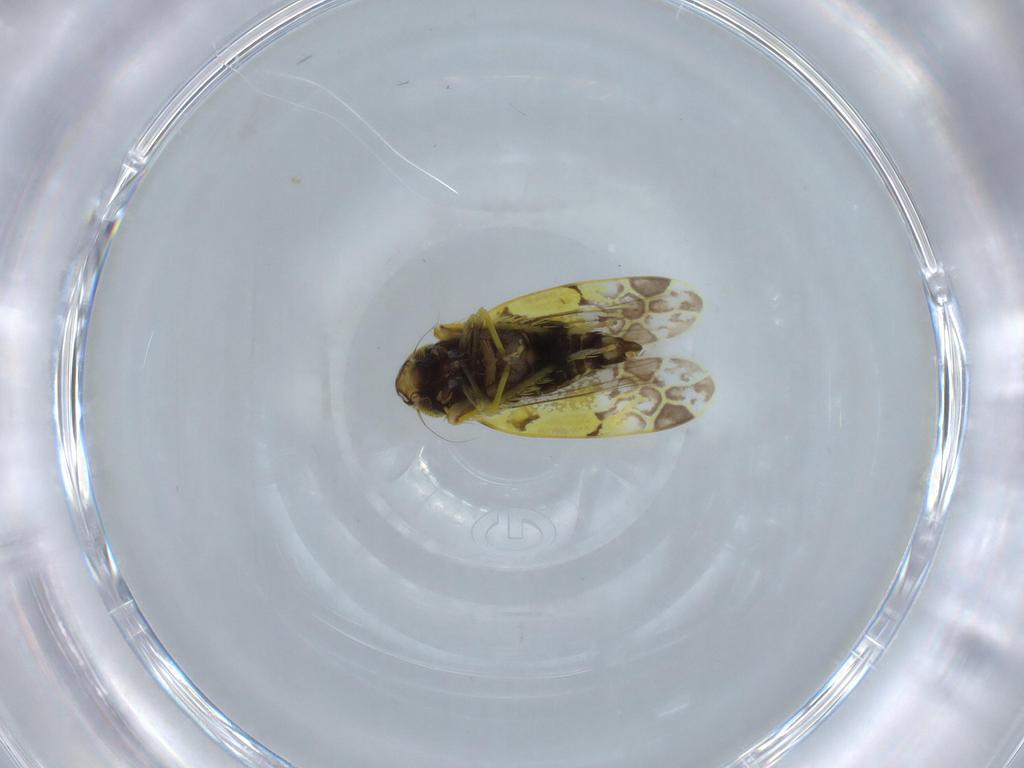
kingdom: Animalia
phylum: Arthropoda
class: Insecta
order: Hemiptera
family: Cicadellidae
